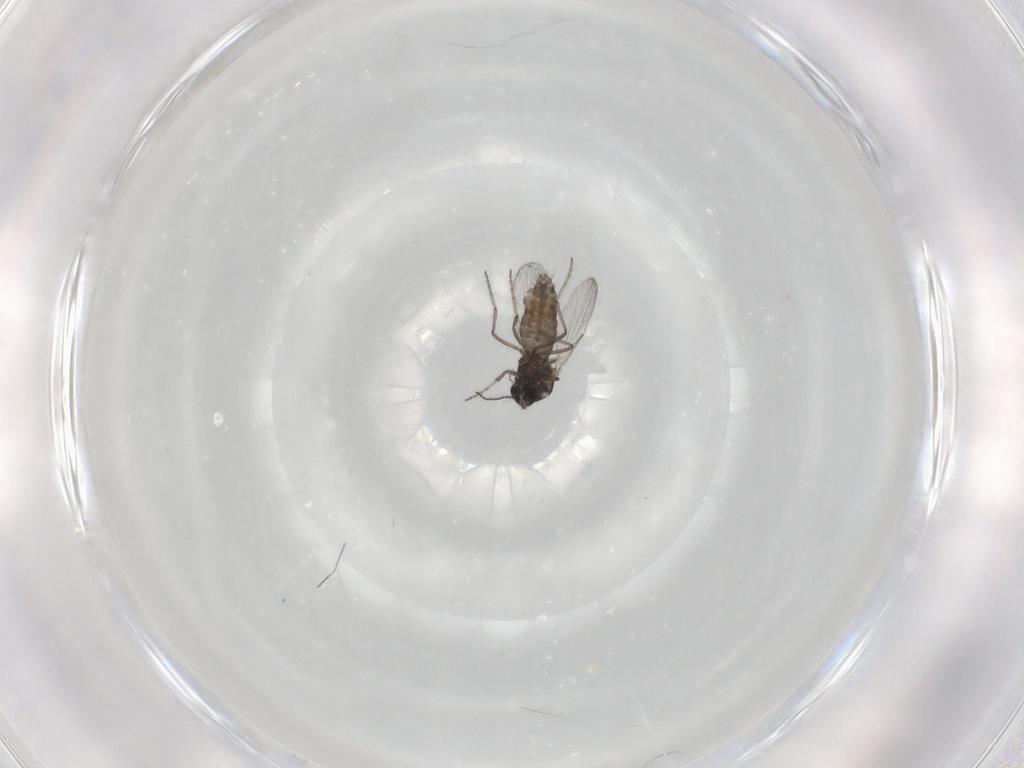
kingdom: Animalia
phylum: Arthropoda
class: Insecta
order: Diptera
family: Ceratopogonidae
